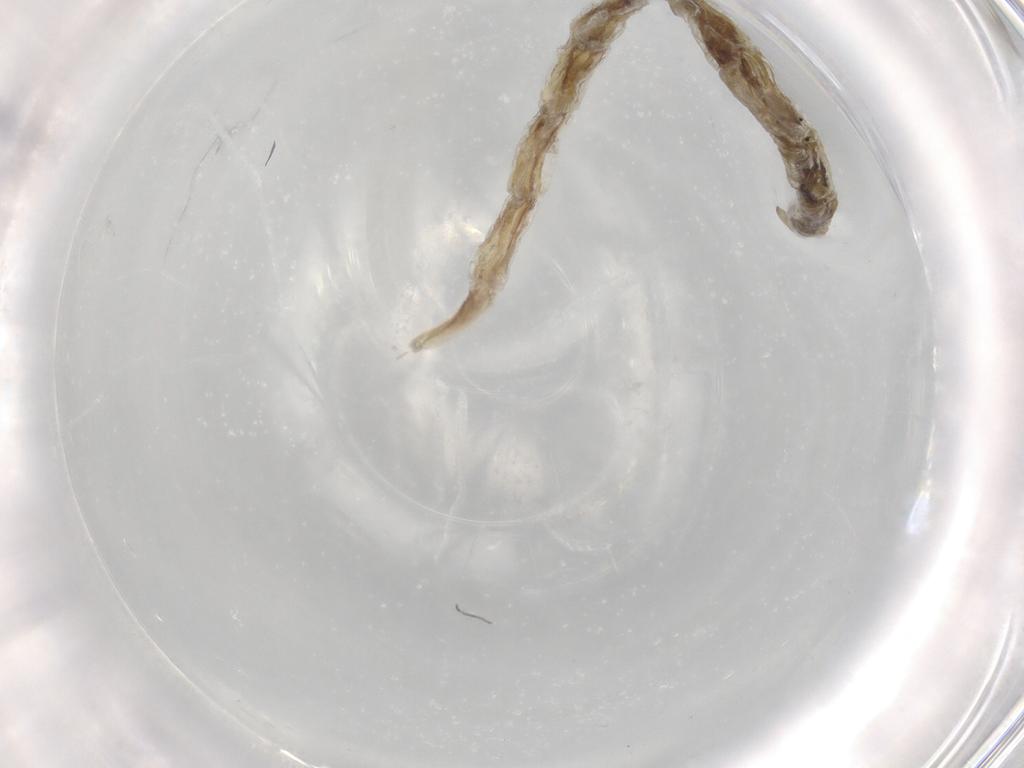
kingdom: Animalia
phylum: Arthropoda
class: Insecta
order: Diptera
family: Ceratopogonidae
